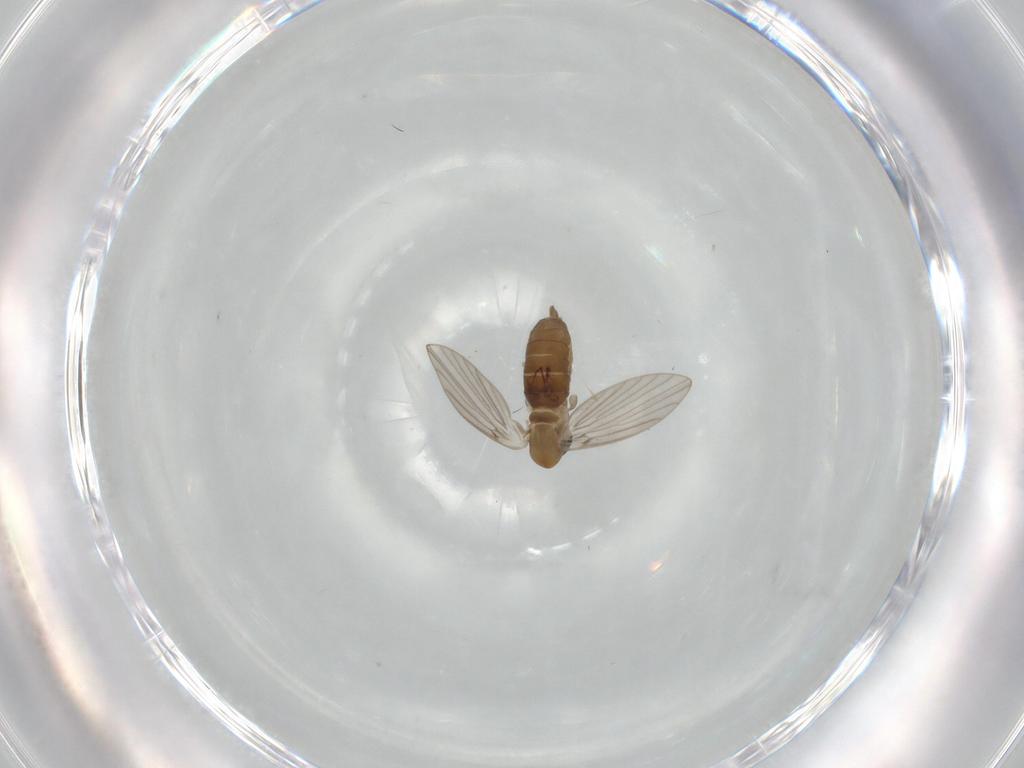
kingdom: Animalia
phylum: Arthropoda
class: Insecta
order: Diptera
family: Psychodidae
